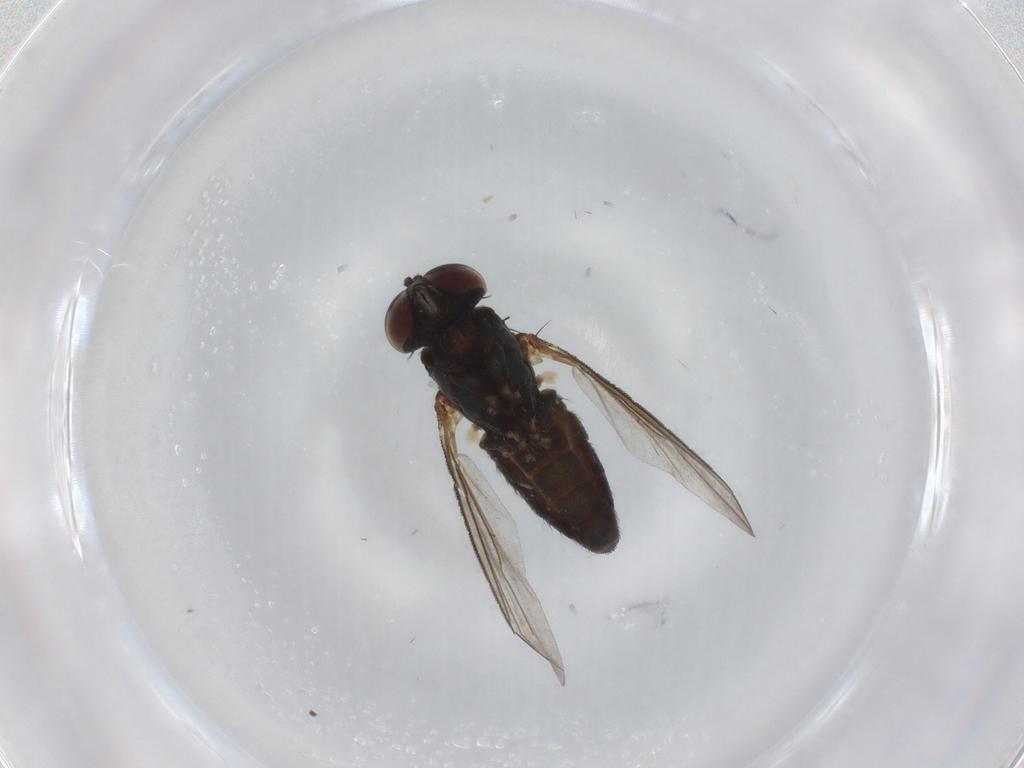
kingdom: Animalia
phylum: Arthropoda
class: Insecta
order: Diptera
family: Dolichopodidae
